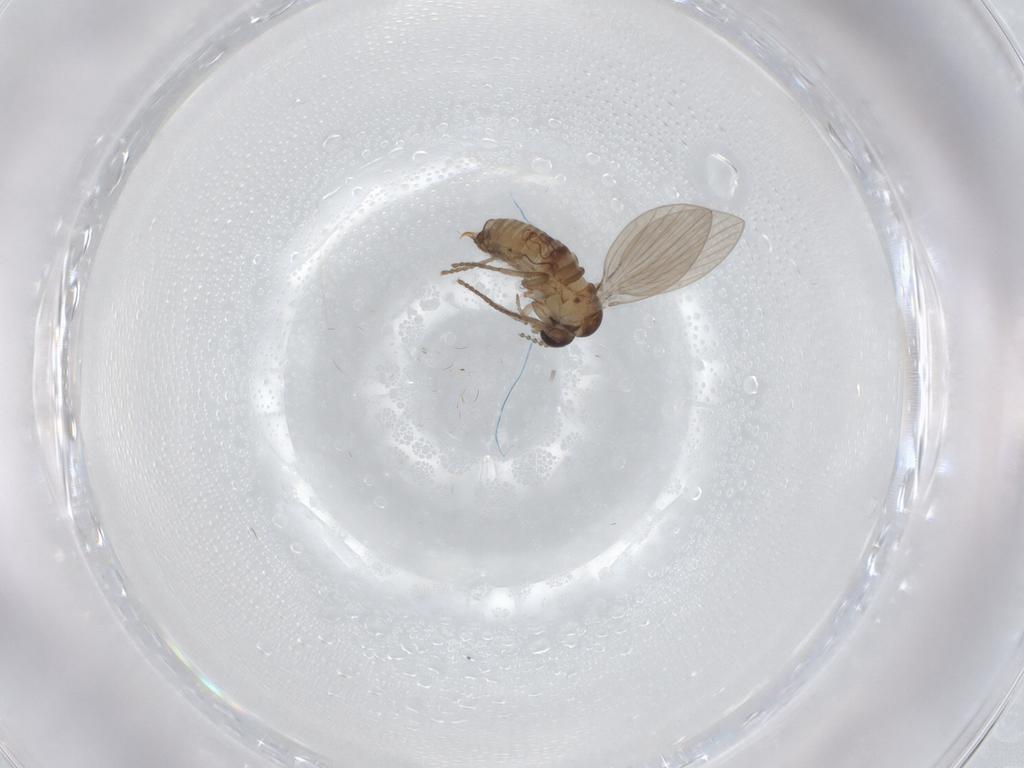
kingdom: Animalia
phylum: Arthropoda
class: Insecta
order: Diptera
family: Psychodidae
